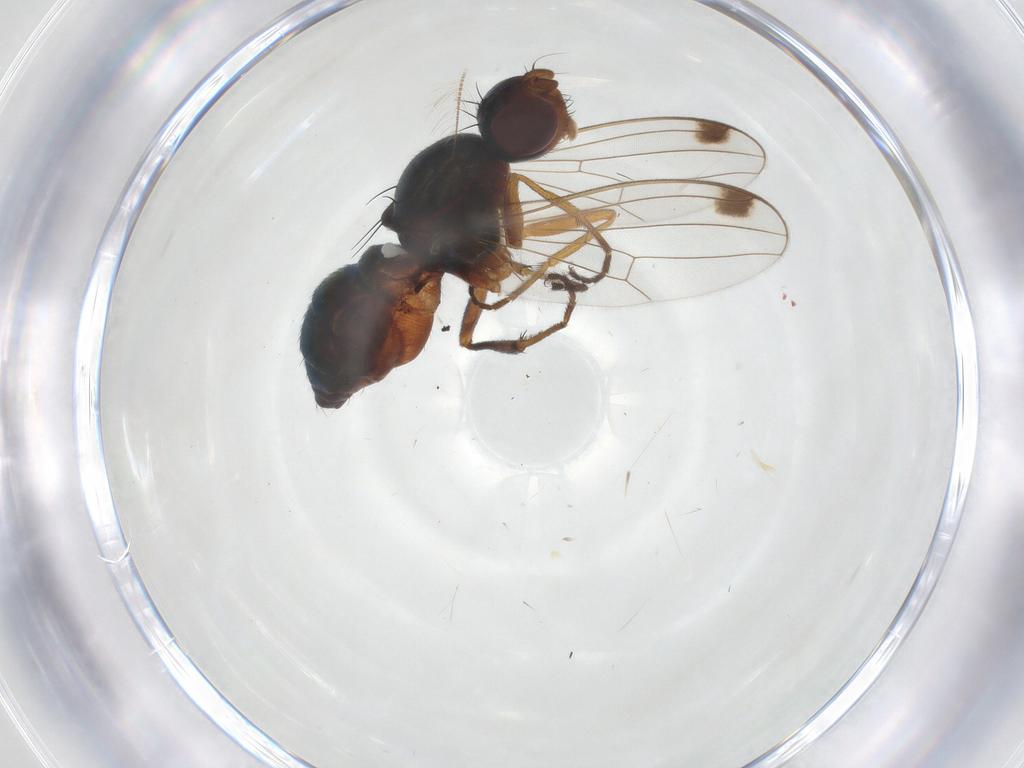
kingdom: Animalia
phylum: Arthropoda
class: Insecta
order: Diptera
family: Sepsidae
